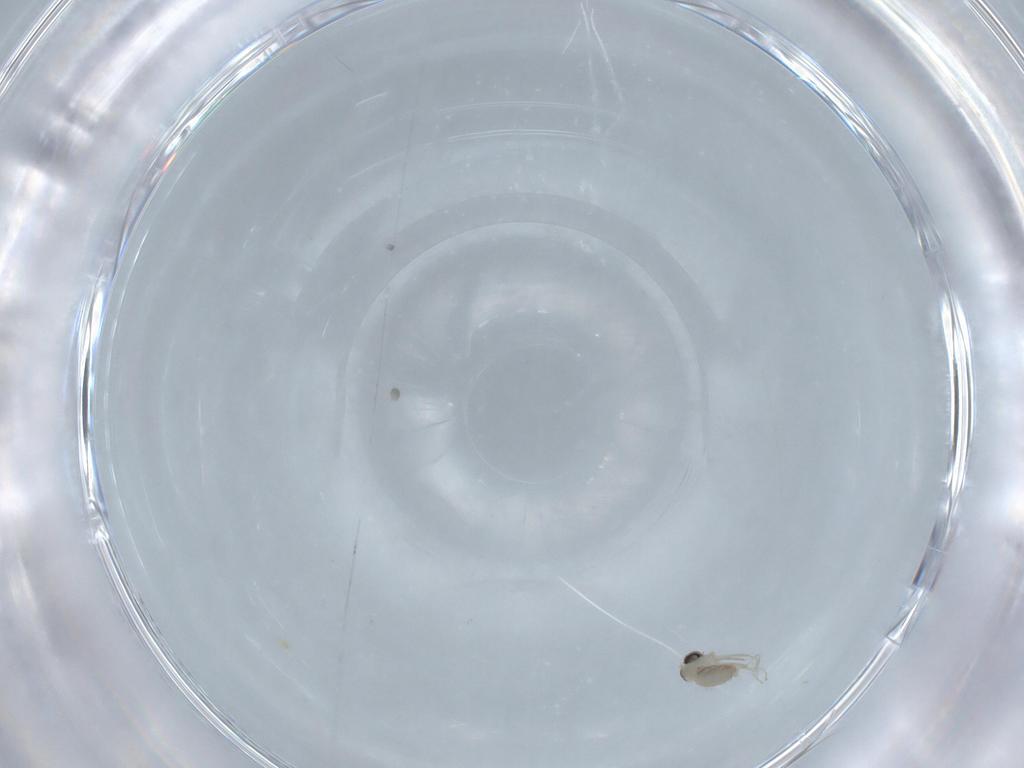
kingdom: Animalia
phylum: Arthropoda
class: Insecta
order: Diptera
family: Cecidomyiidae
